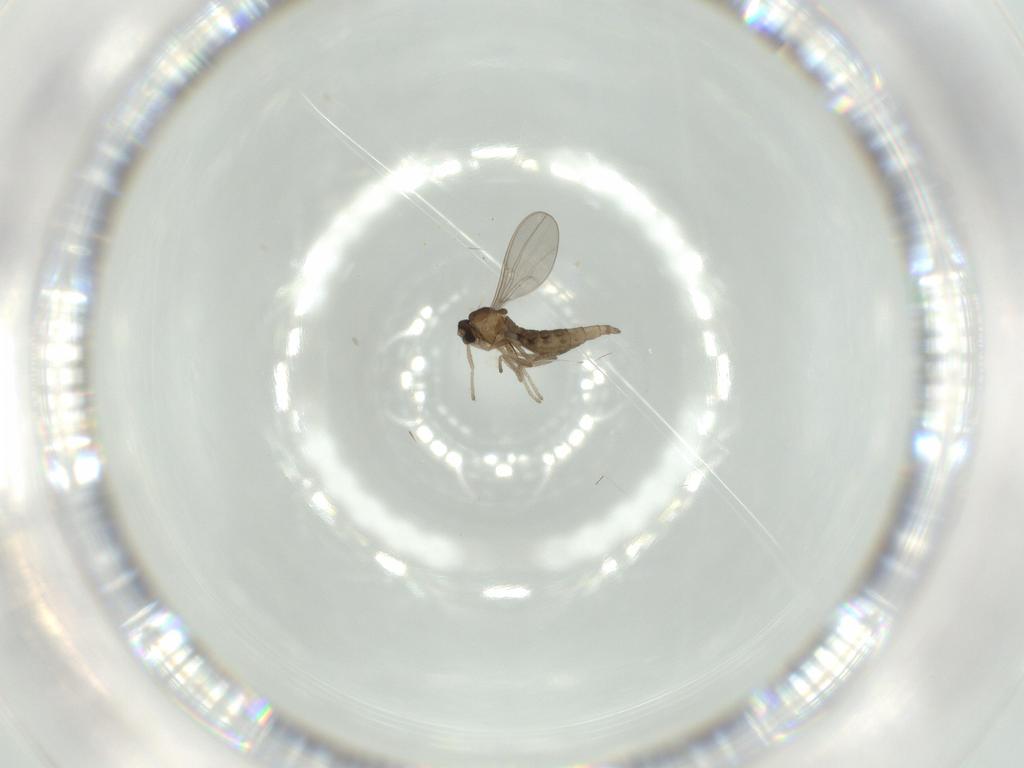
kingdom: Animalia
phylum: Arthropoda
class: Insecta
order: Diptera
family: Cecidomyiidae
